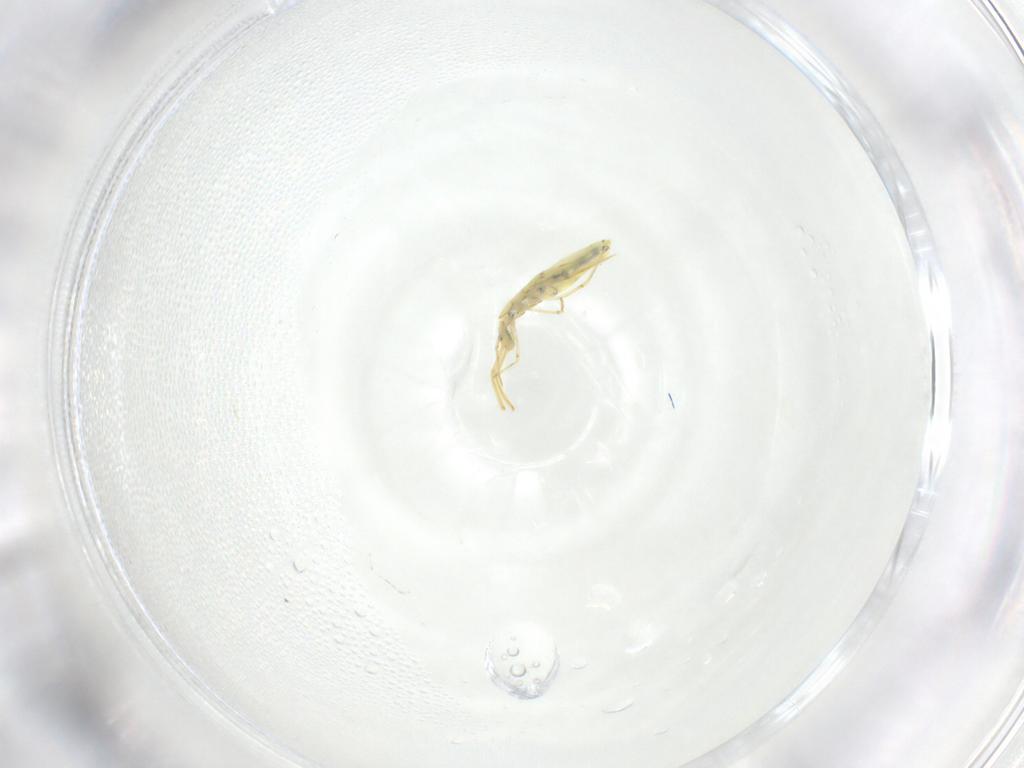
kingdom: Animalia
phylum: Arthropoda
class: Collembola
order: Entomobryomorpha
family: Entomobryidae
